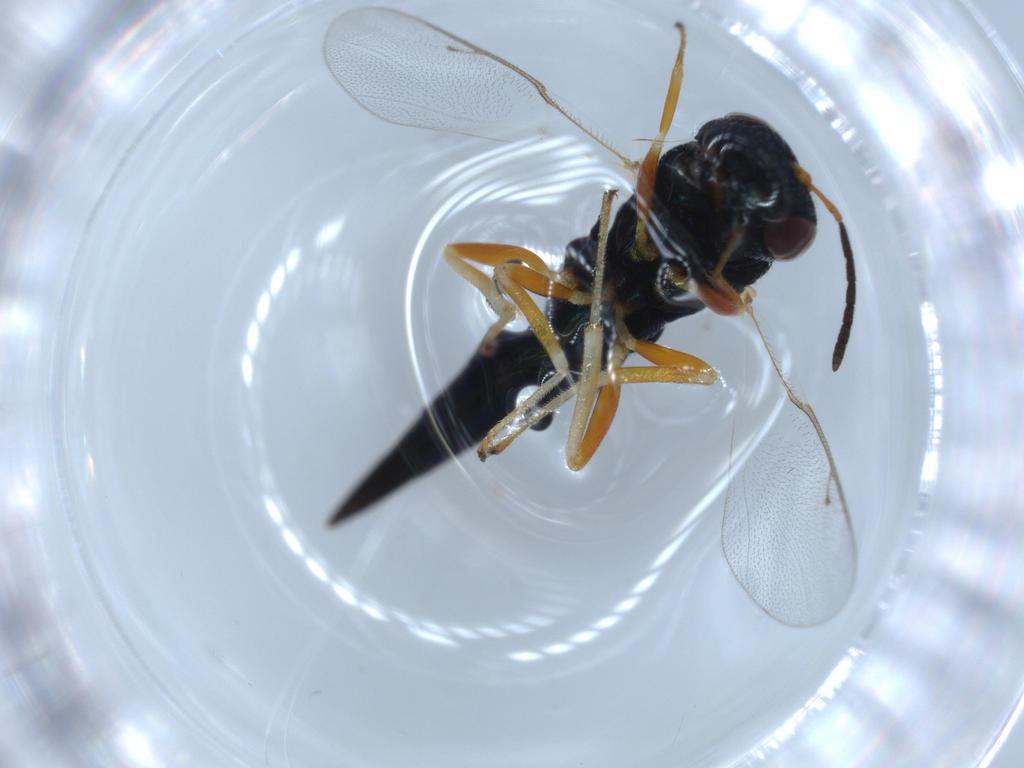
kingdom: Animalia
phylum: Arthropoda
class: Insecta
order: Hymenoptera
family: Pteromalidae
